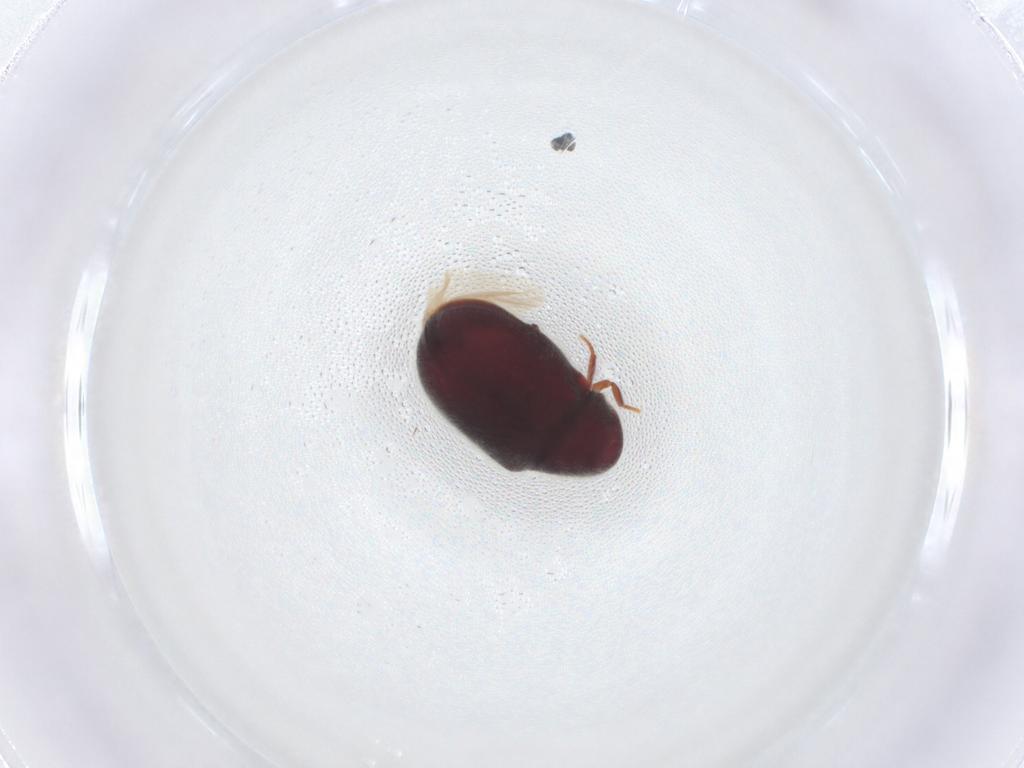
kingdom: Animalia
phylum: Arthropoda
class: Insecta
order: Coleoptera
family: Ptinidae
